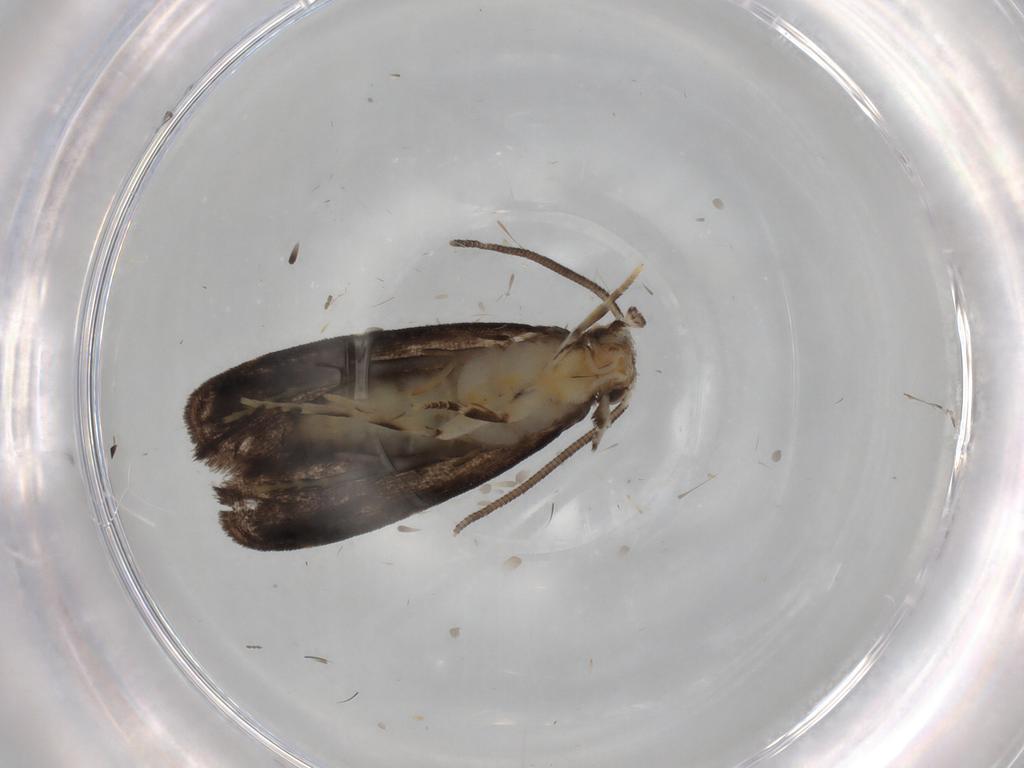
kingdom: Animalia
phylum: Arthropoda
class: Insecta
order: Lepidoptera
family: Dryadaulidae
